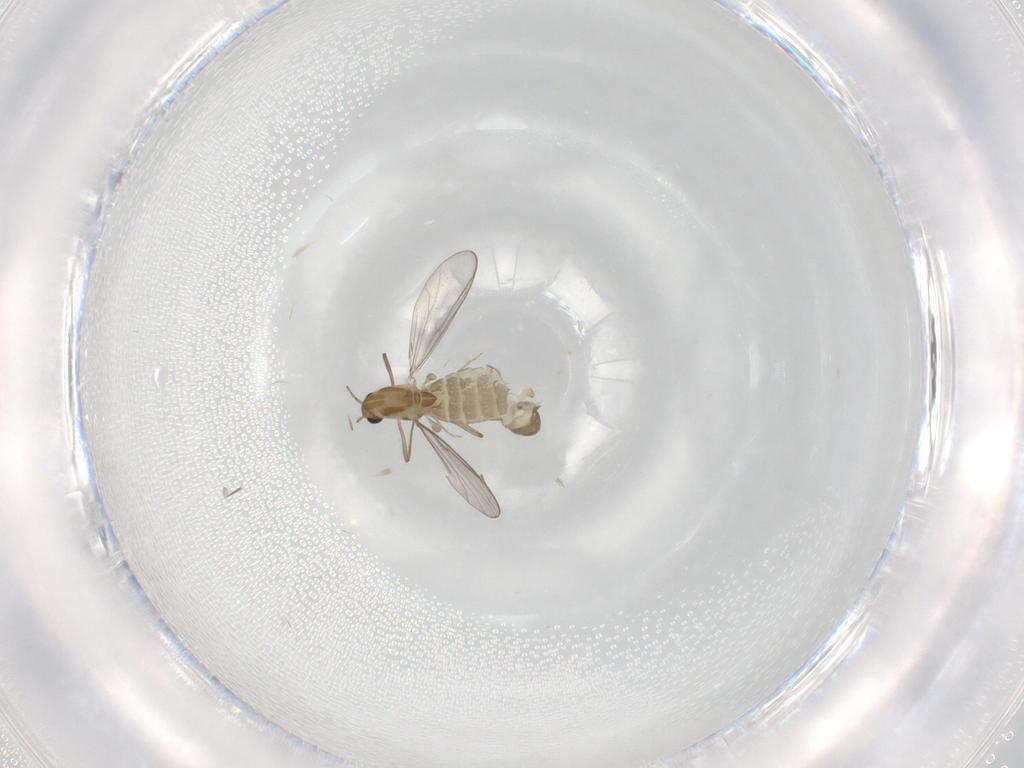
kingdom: Animalia
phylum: Arthropoda
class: Insecta
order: Diptera
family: Chironomidae
